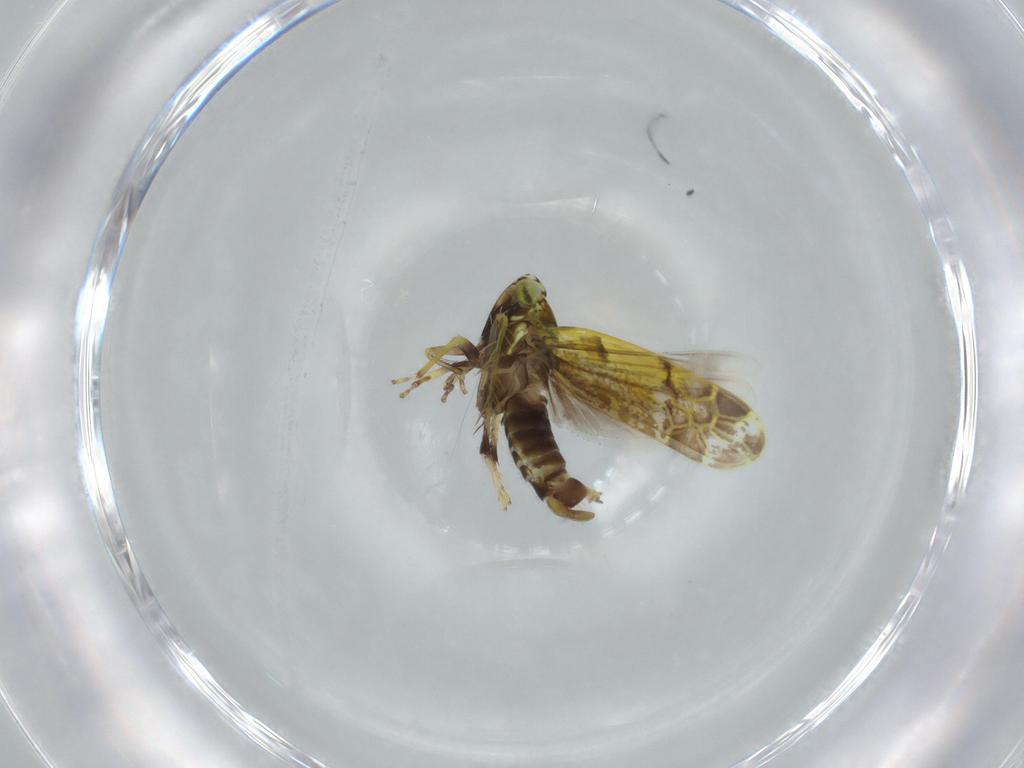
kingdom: Animalia
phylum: Arthropoda
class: Insecta
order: Hemiptera
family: Cicadellidae
